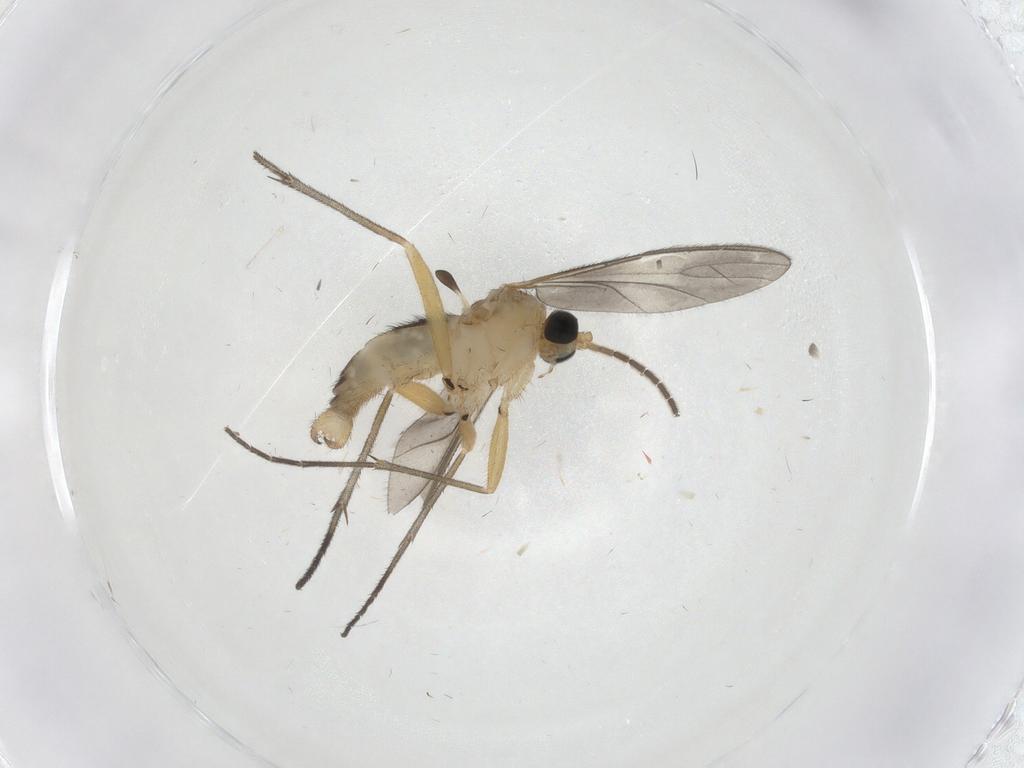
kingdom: Animalia
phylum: Arthropoda
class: Insecta
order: Diptera
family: Sciaridae
